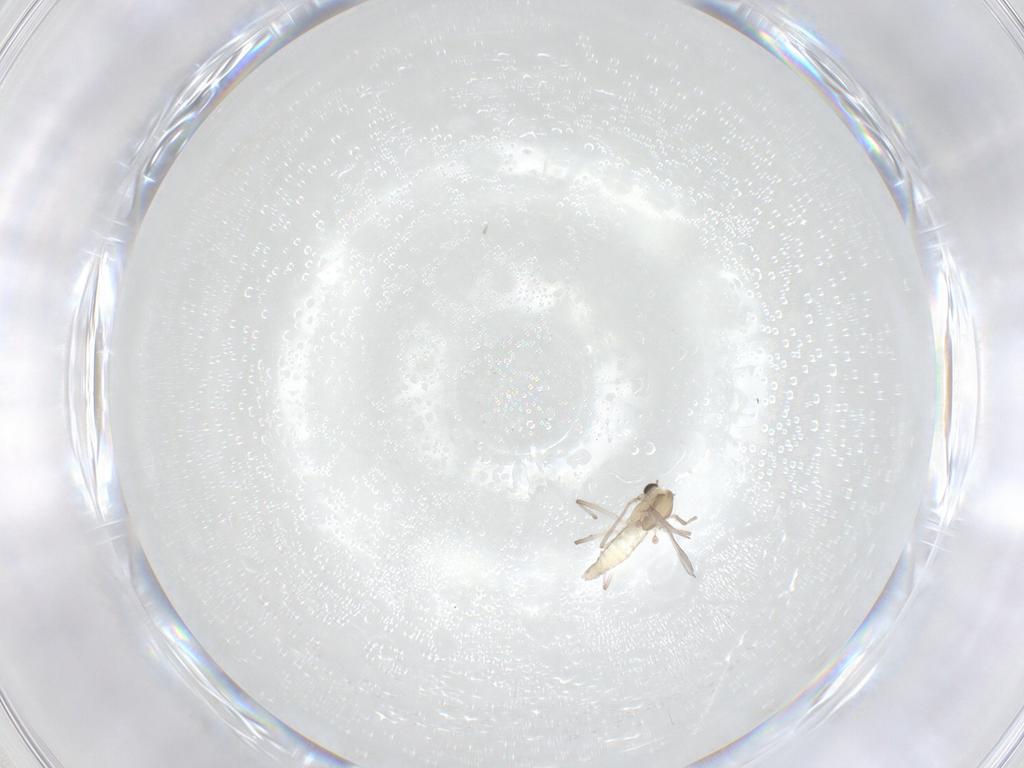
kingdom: Animalia
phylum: Arthropoda
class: Insecta
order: Diptera
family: Chironomidae
